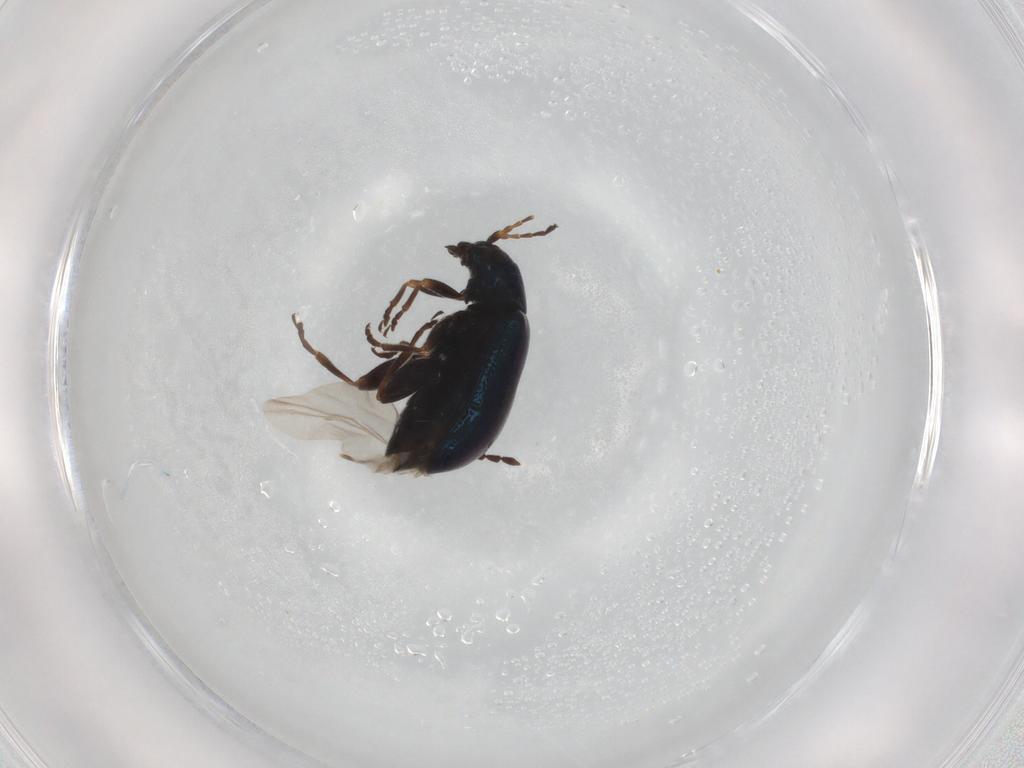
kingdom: Animalia
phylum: Arthropoda
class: Insecta
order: Coleoptera
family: Chrysomelidae
